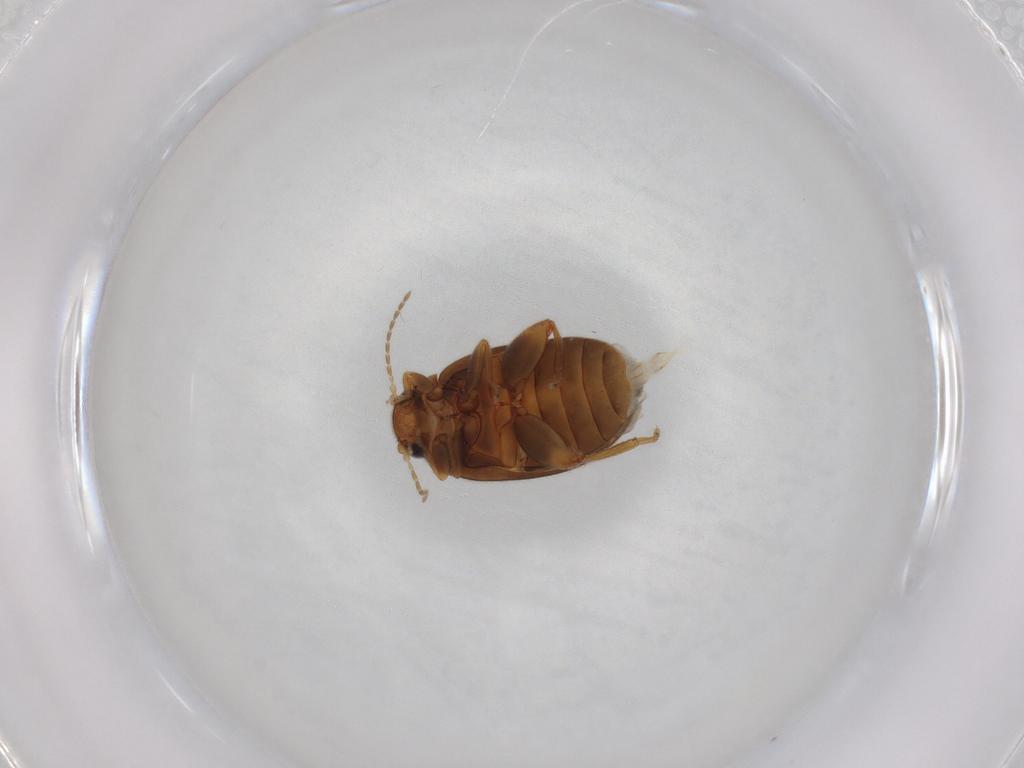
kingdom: Animalia
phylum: Arthropoda
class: Insecta
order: Coleoptera
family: Scirtidae
